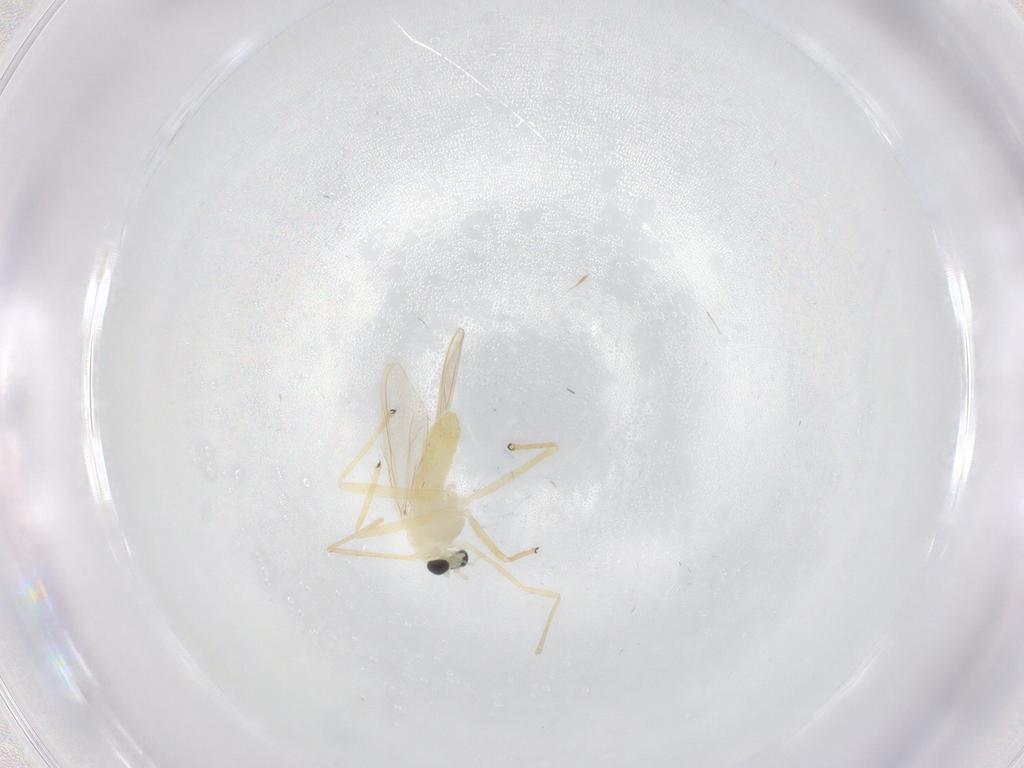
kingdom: Animalia
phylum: Arthropoda
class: Insecta
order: Diptera
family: Chironomidae
